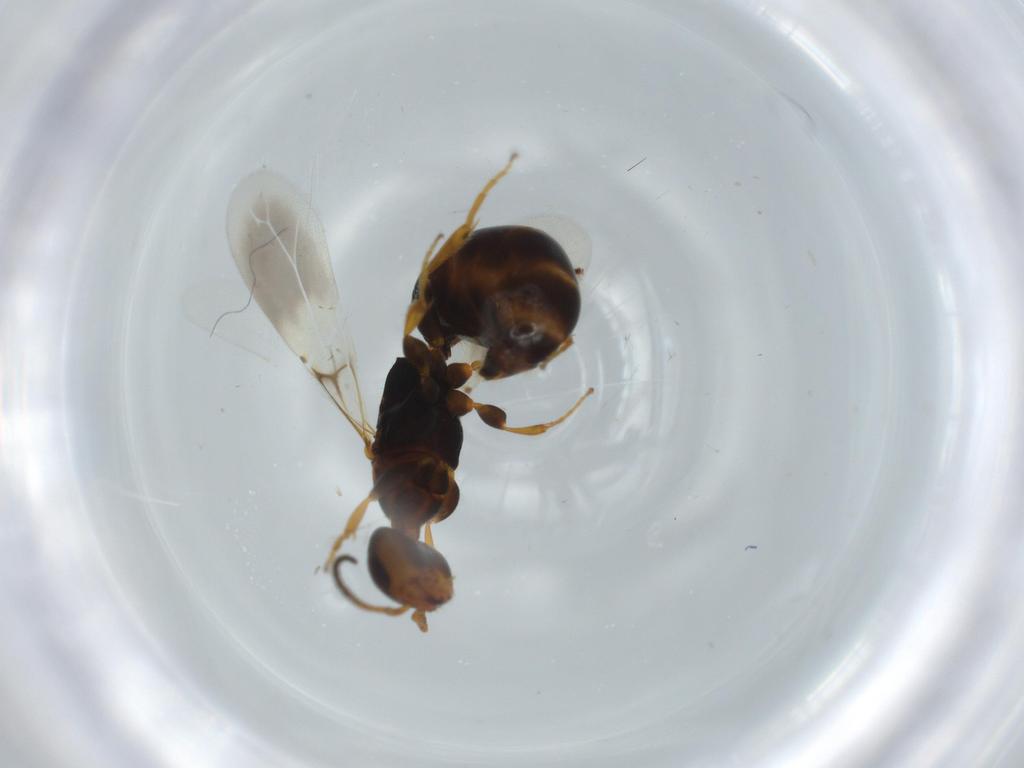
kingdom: Animalia
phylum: Arthropoda
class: Insecta
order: Hymenoptera
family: Bethylidae
